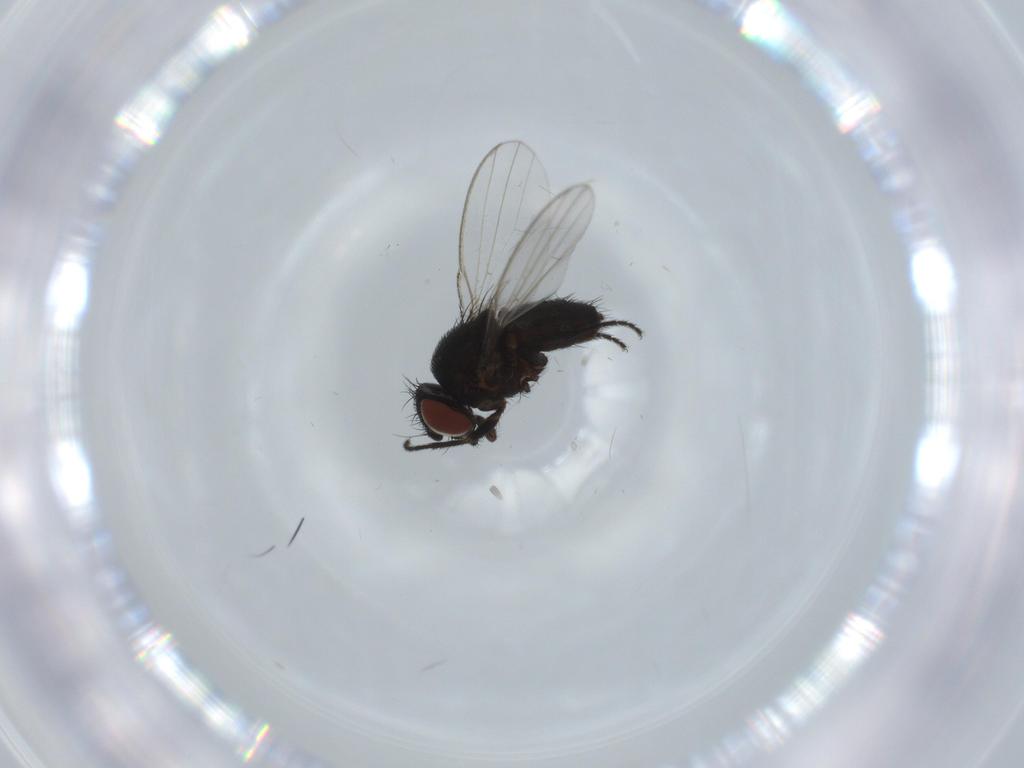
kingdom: Animalia
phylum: Arthropoda
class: Insecta
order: Diptera
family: Milichiidae
